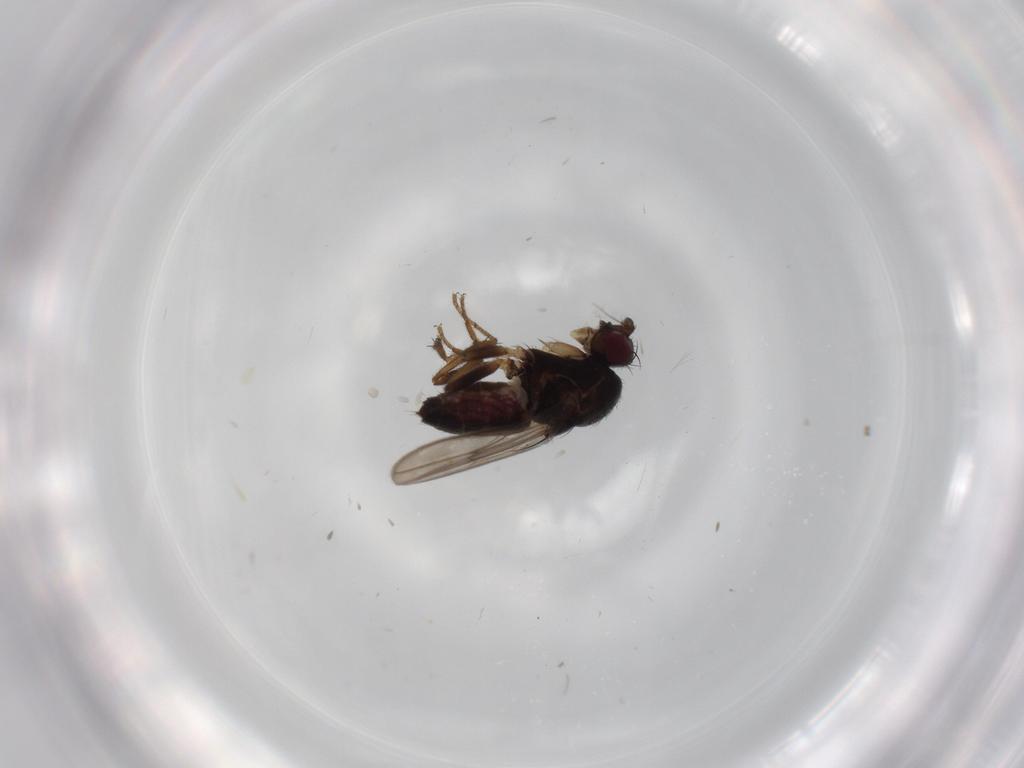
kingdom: Animalia
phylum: Arthropoda
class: Insecta
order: Diptera
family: Sphaeroceridae
